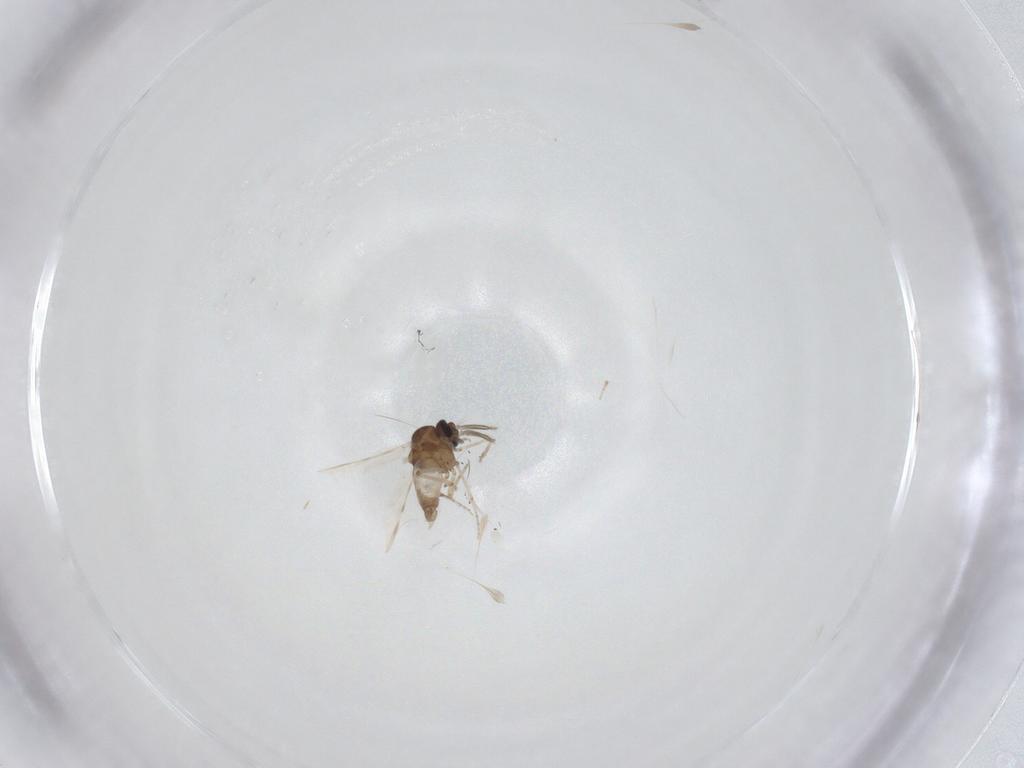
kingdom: Animalia
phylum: Arthropoda
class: Insecta
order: Diptera
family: Ceratopogonidae
